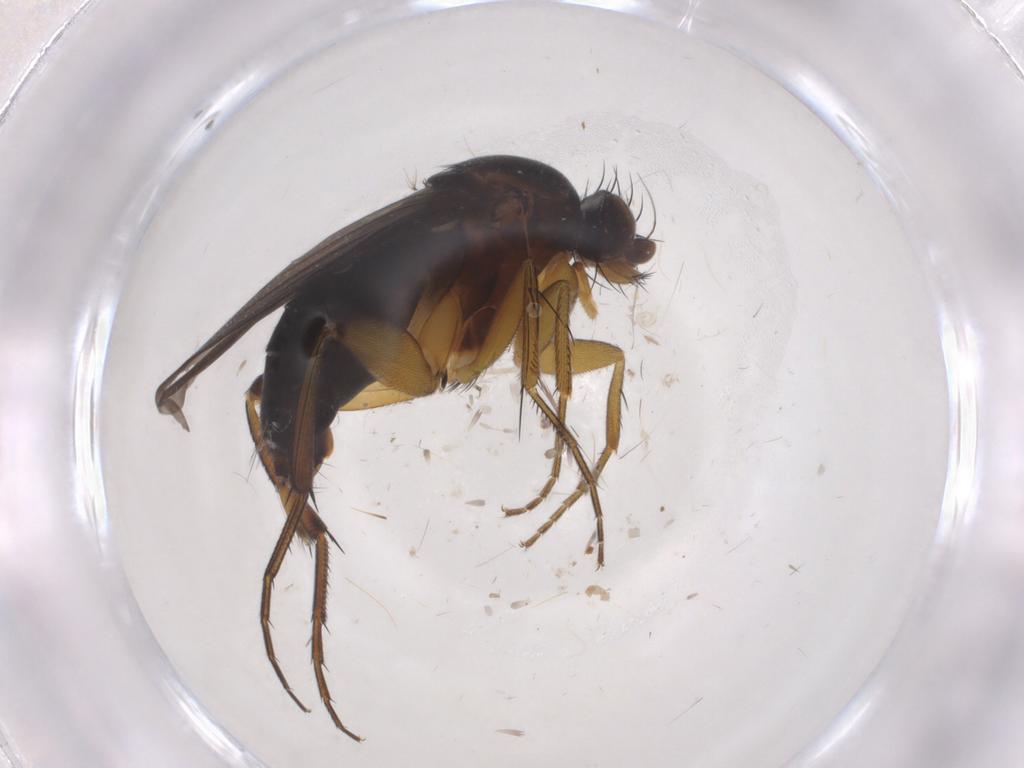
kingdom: Animalia
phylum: Arthropoda
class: Insecta
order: Diptera
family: Phoridae
